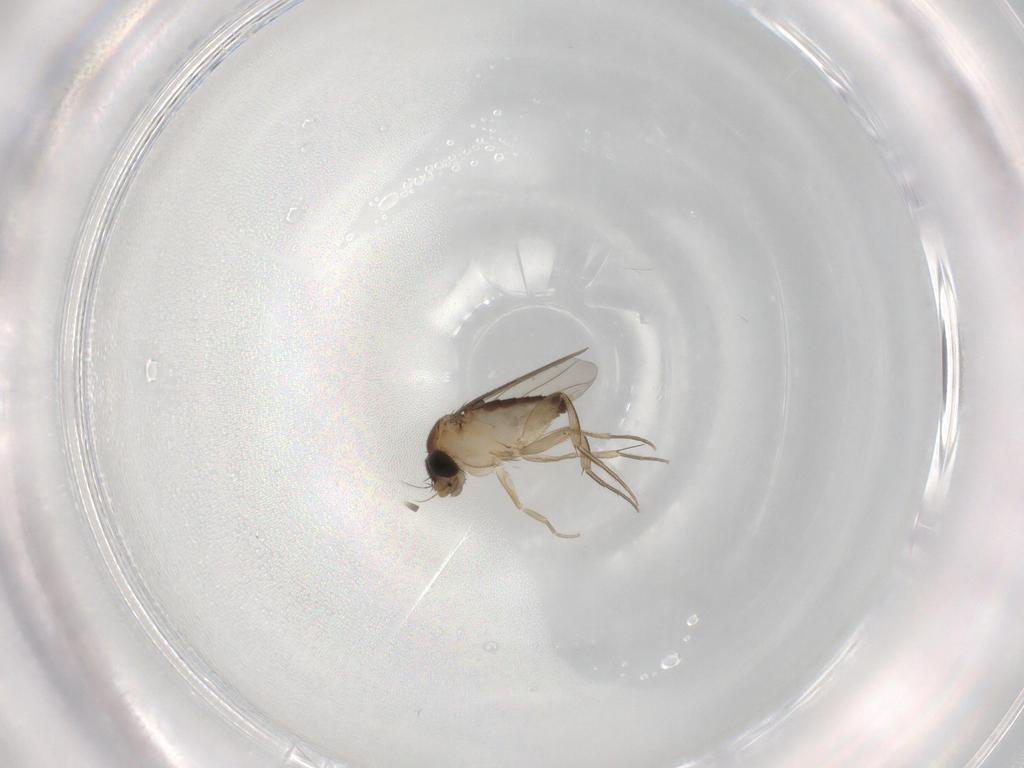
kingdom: Animalia
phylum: Arthropoda
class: Insecta
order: Diptera
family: Phoridae
